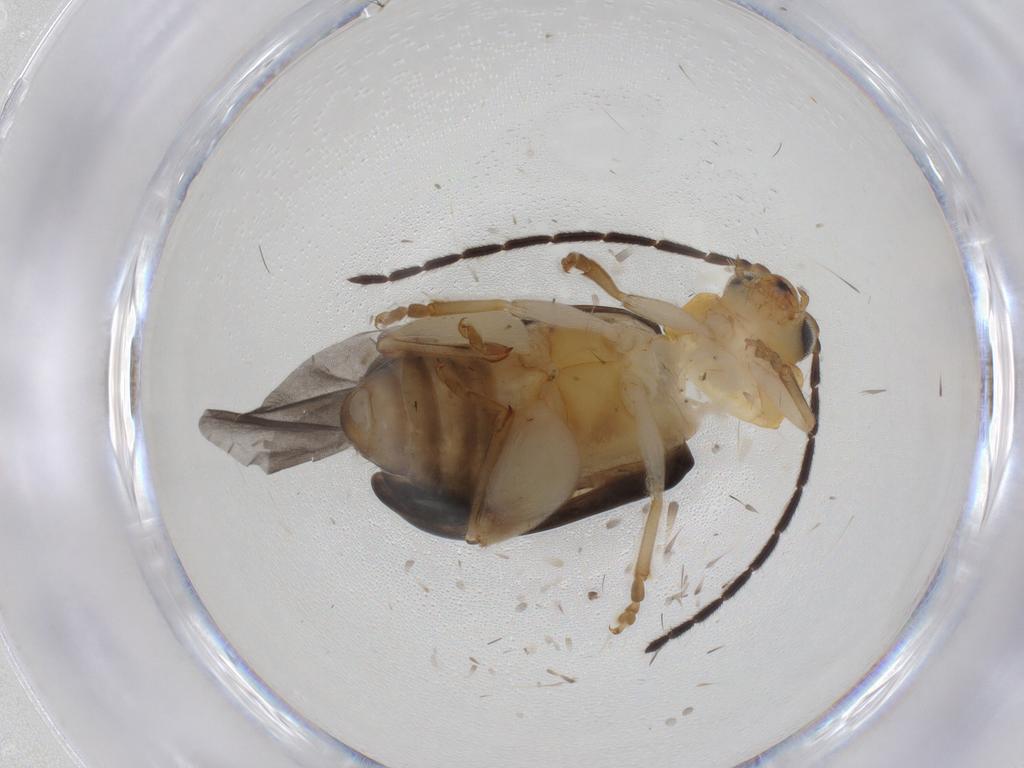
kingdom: Animalia
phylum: Arthropoda
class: Insecta
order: Coleoptera
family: Chrysomelidae
